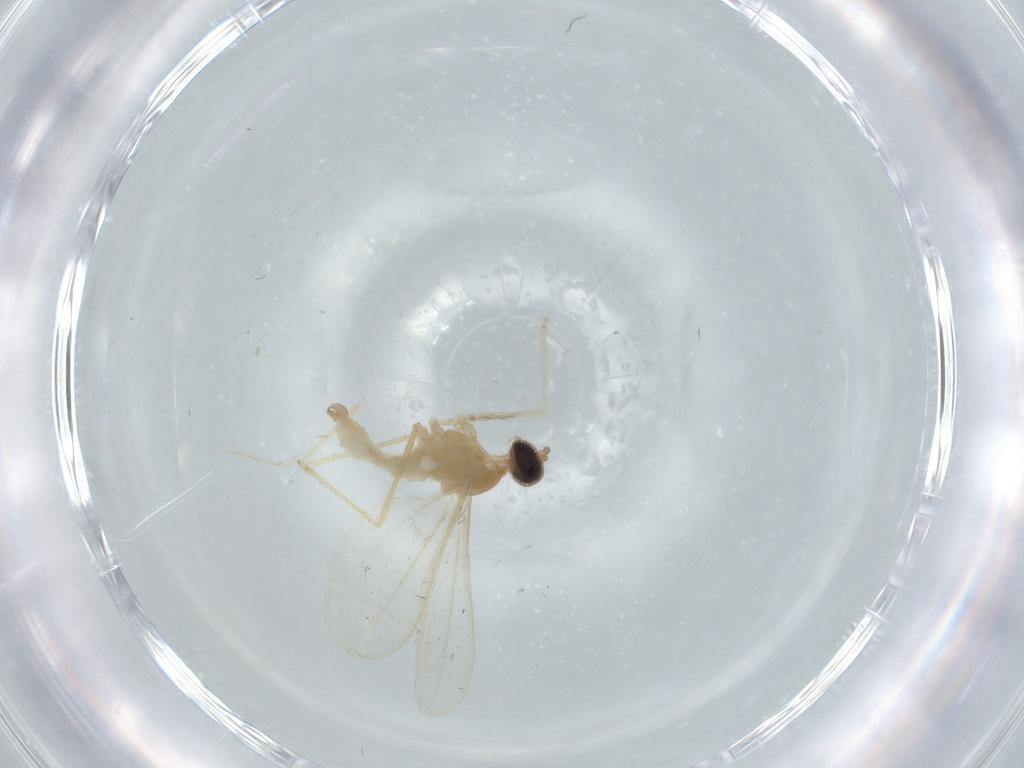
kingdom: Animalia
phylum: Arthropoda
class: Insecta
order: Diptera
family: Cecidomyiidae
